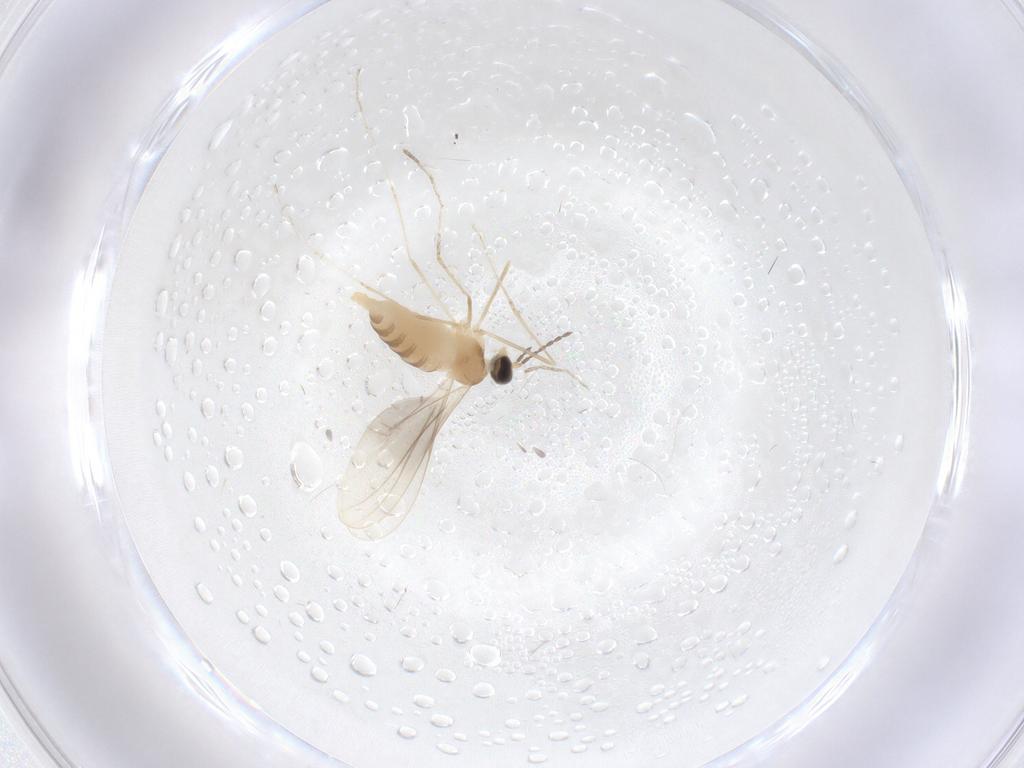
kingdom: Animalia
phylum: Arthropoda
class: Insecta
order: Diptera
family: Cecidomyiidae
